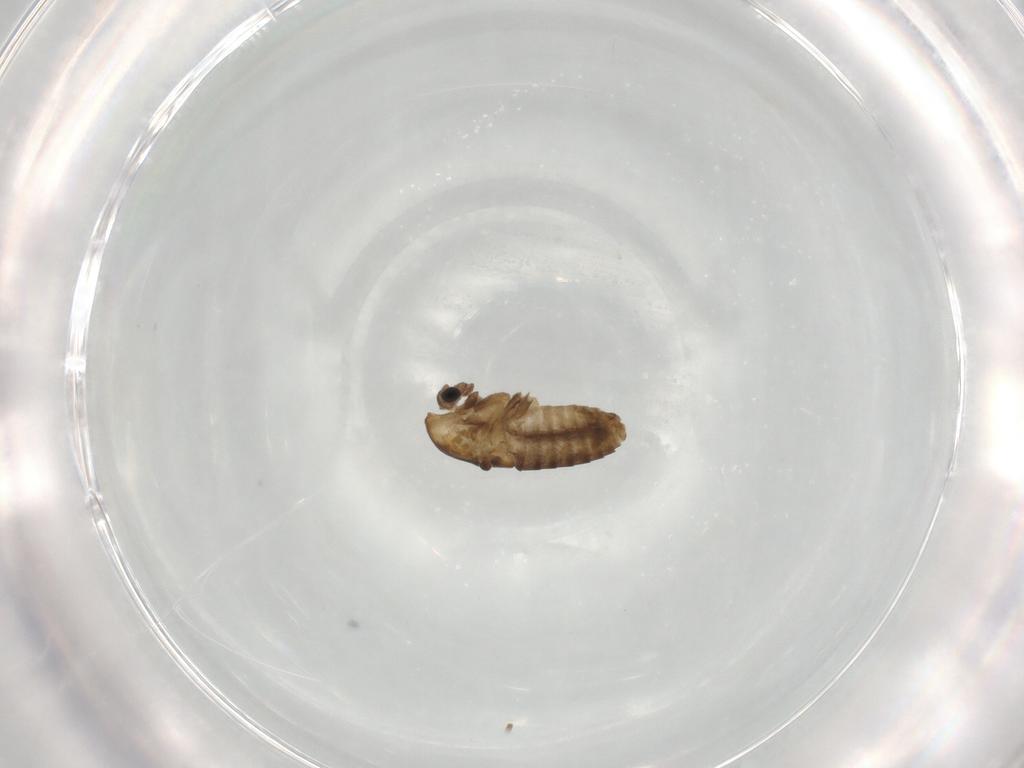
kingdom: Animalia
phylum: Arthropoda
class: Insecta
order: Diptera
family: Chironomidae
